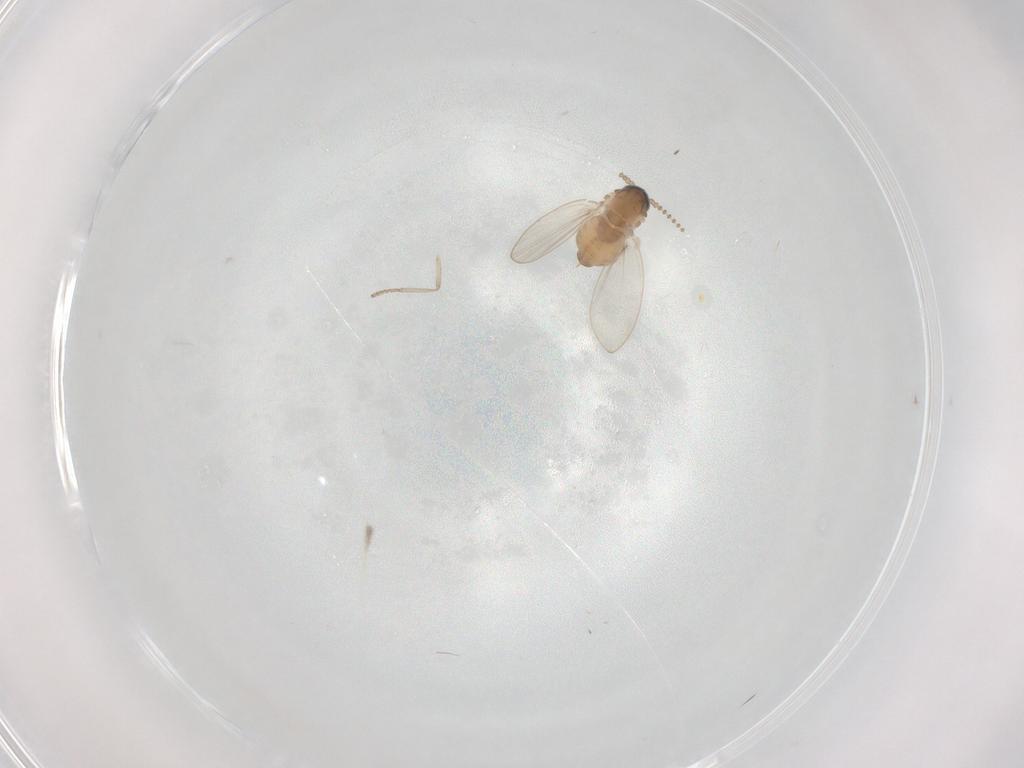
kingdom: Animalia
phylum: Arthropoda
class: Insecta
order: Diptera
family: Psychodidae
